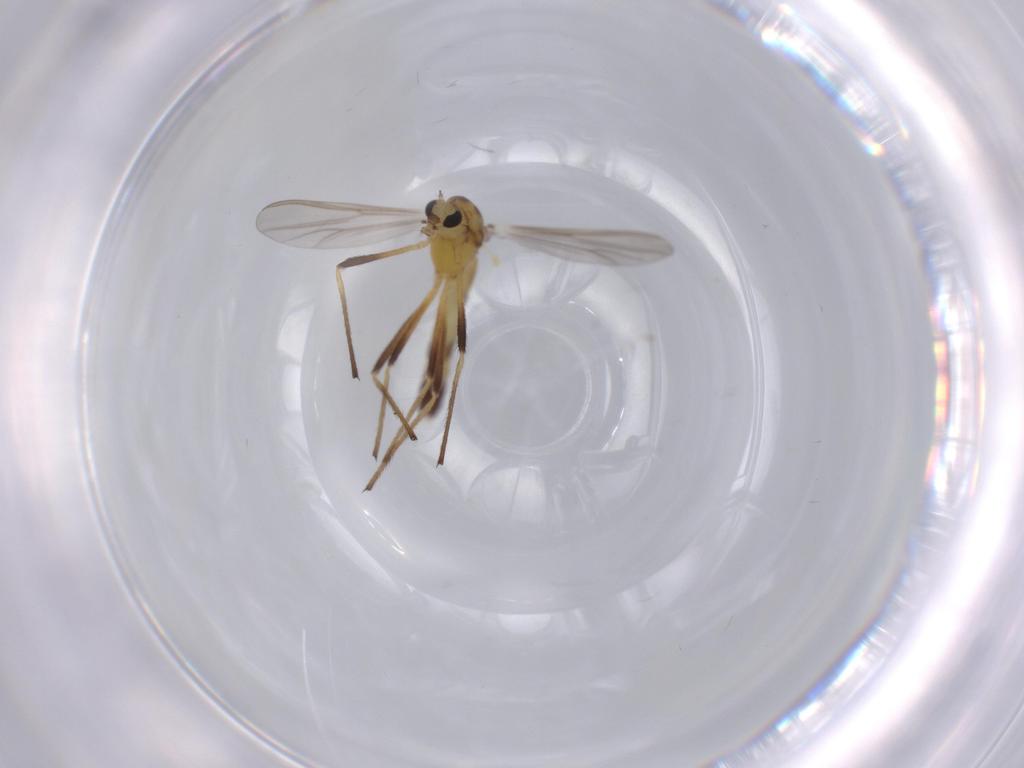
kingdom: Animalia
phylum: Arthropoda
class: Insecta
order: Diptera
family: Chironomidae
